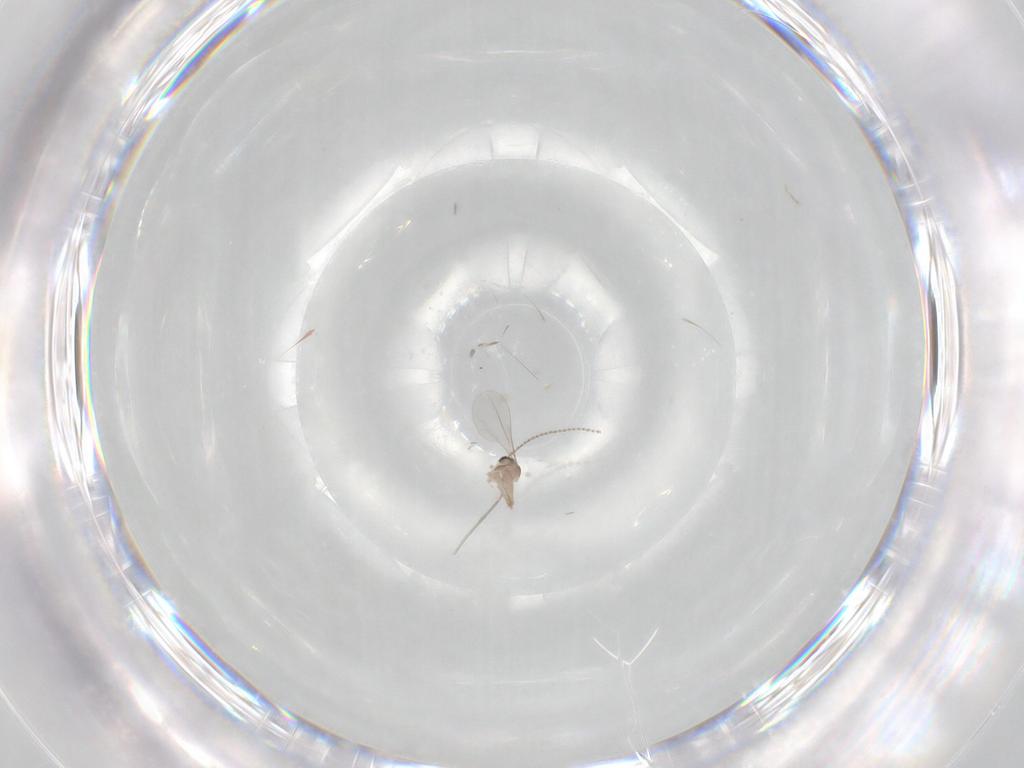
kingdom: Animalia
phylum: Arthropoda
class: Insecta
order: Diptera
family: Cecidomyiidae
